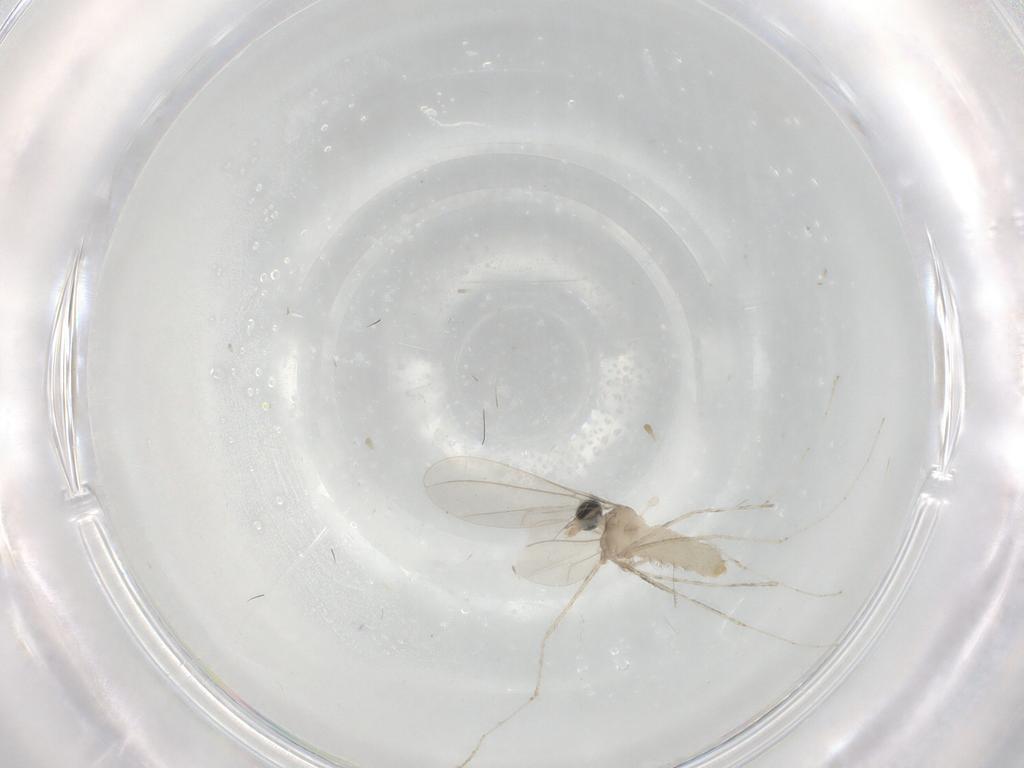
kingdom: Animalia
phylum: Arthropoda
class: Insecta
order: Diptera
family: Cecidomyiidae
